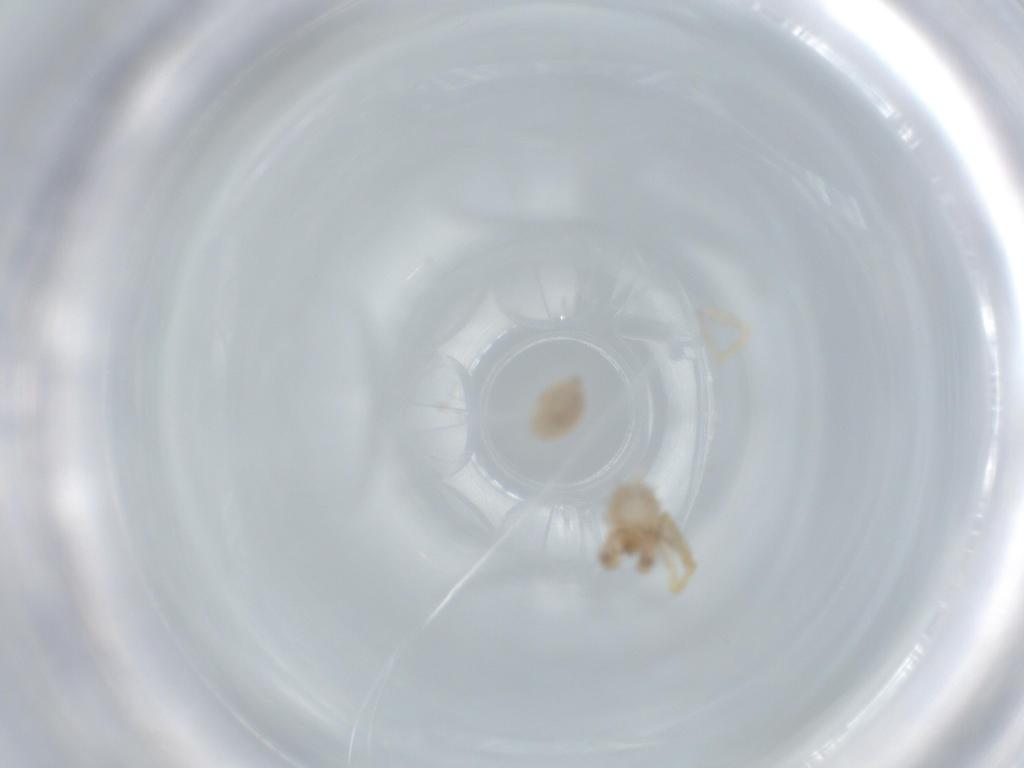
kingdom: Animalia
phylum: Arthropoda
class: Arachnida
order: Araneae
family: Oonopidae
